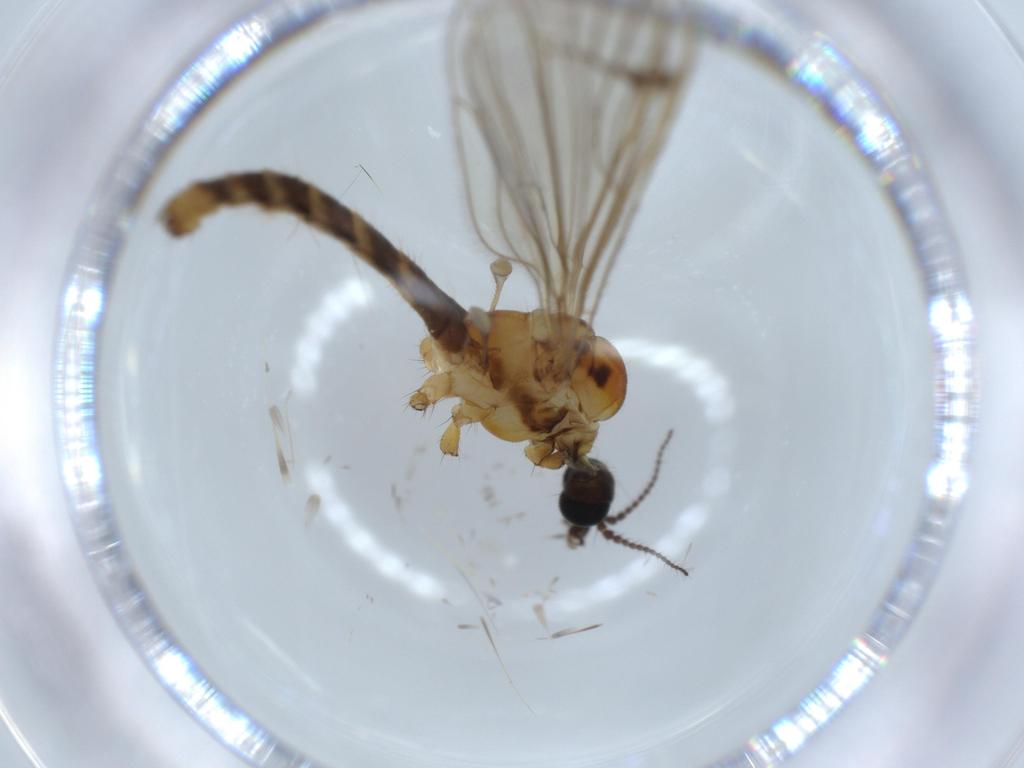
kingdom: Animalia
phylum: Arthropoda
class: Insecta
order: Diptera
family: Limoniidae
